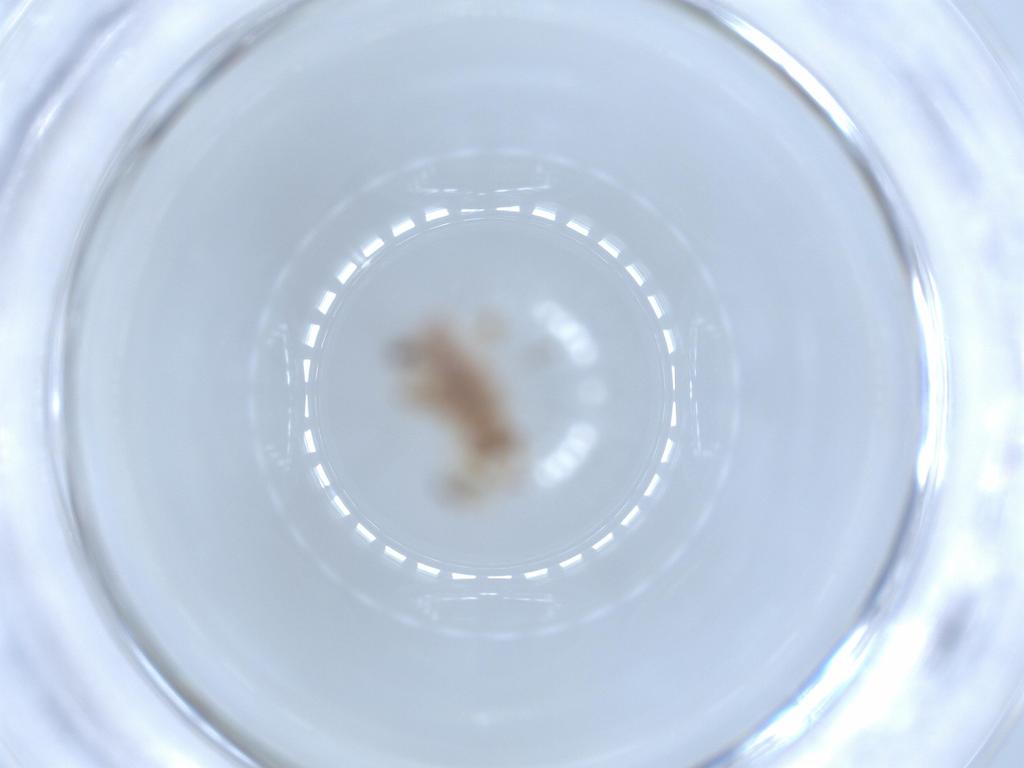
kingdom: Animalia
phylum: Arthropoda
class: Insecta
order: Neuroptera
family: Chrysopidae
